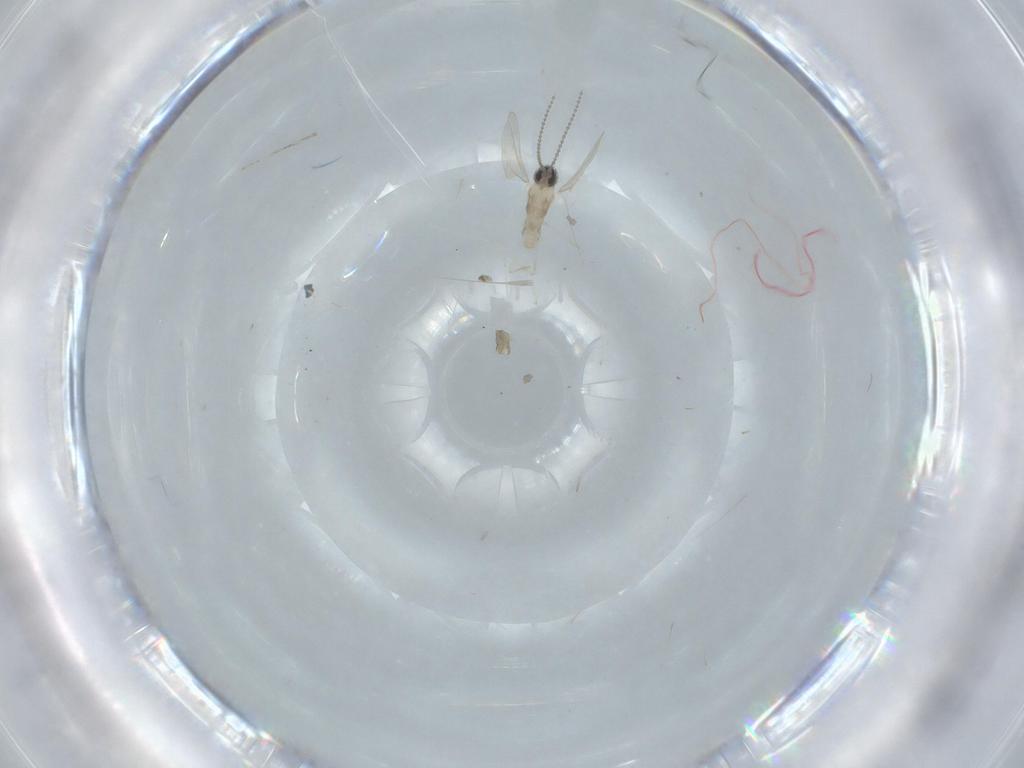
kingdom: Animalia
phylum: Arthropoda
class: Insecta
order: Diptera
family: Cecidomyiidae
